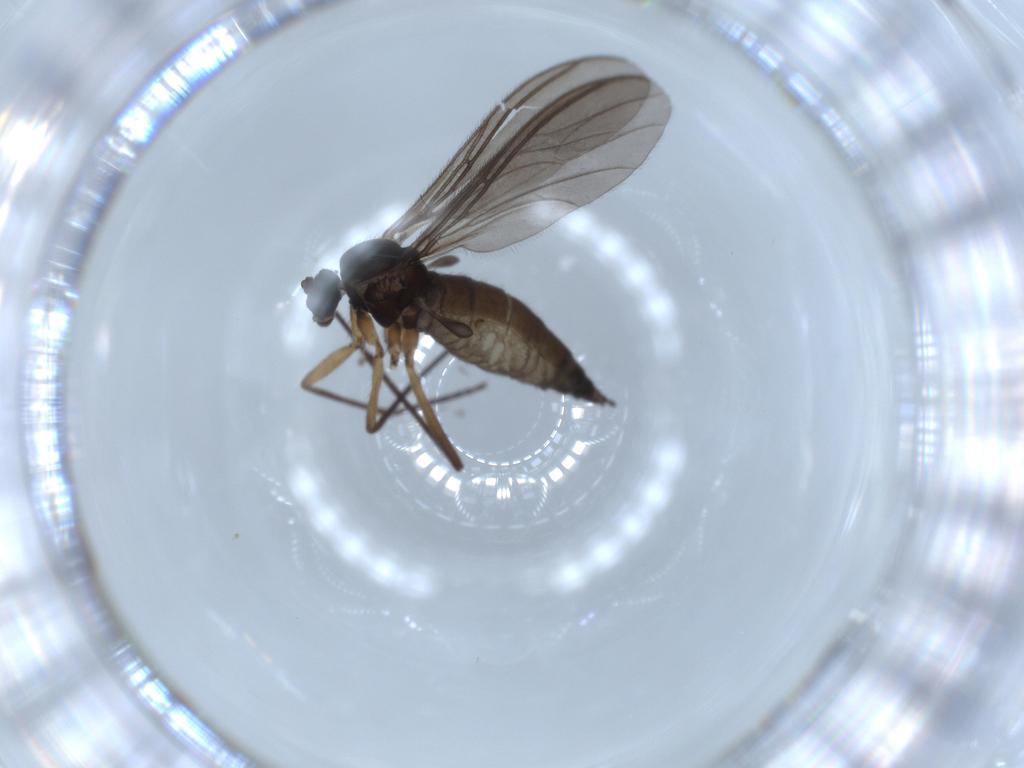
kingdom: Animalia
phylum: Arthropoda
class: Insecta
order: Diptera
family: Sciaridae
